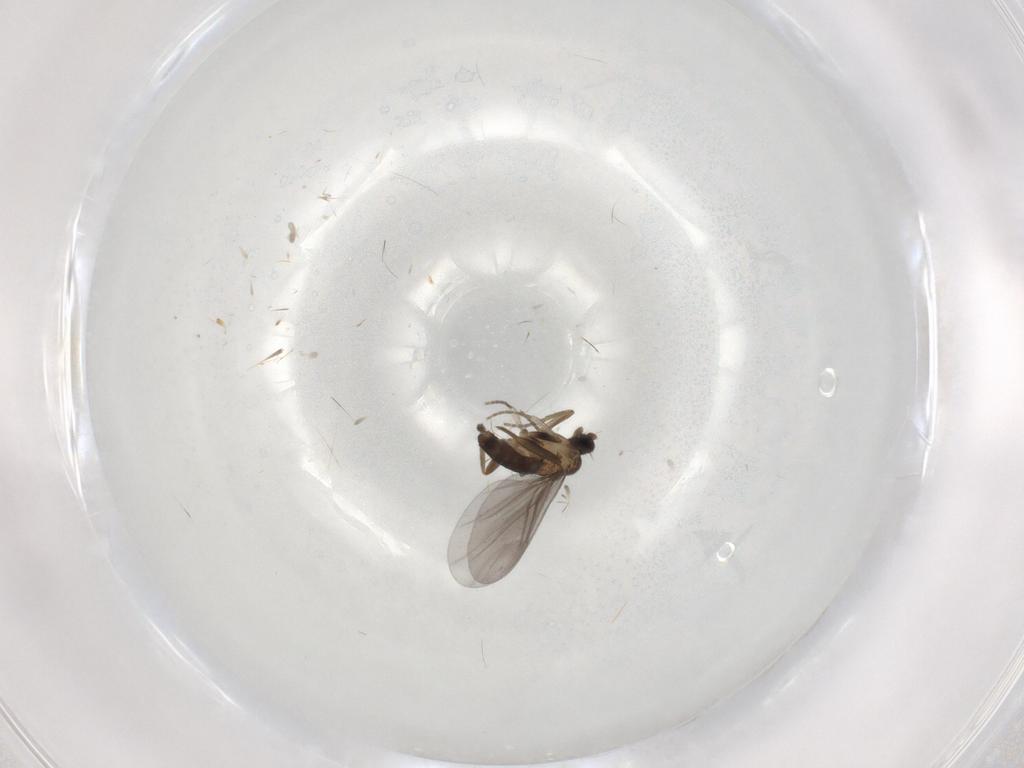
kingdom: Animalia
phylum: Arthropoda
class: Insecta
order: Diptera
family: Phoridae
